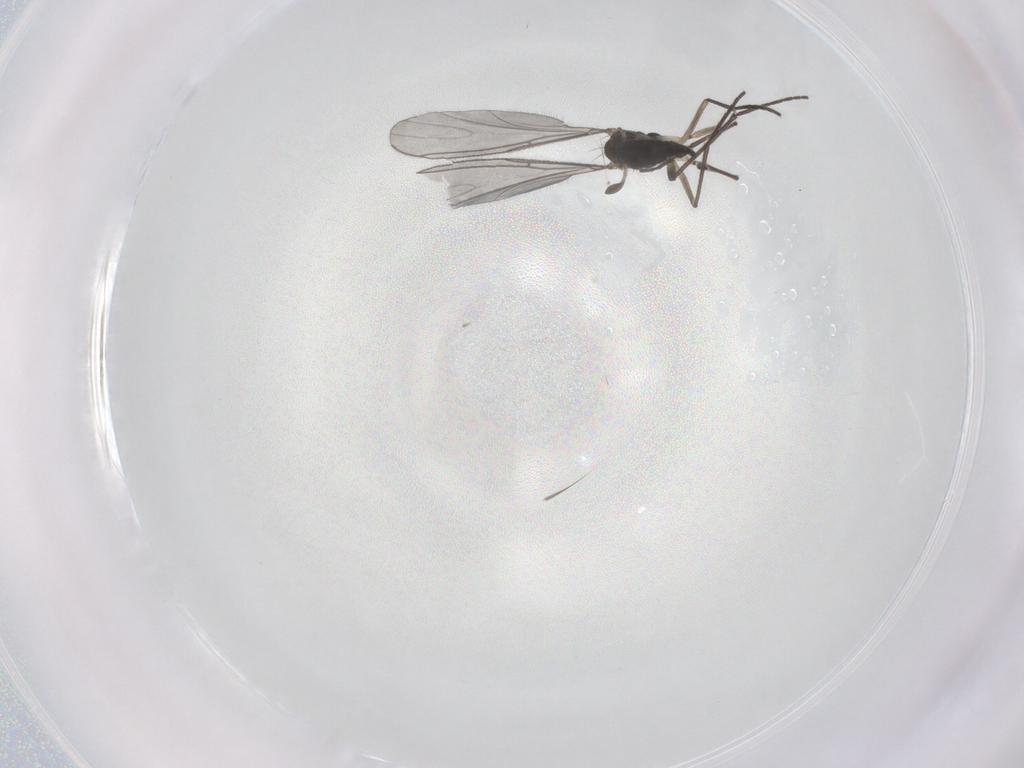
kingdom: Animalia
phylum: Arthropoda
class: Insecta
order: Diptera
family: Sciaridae
